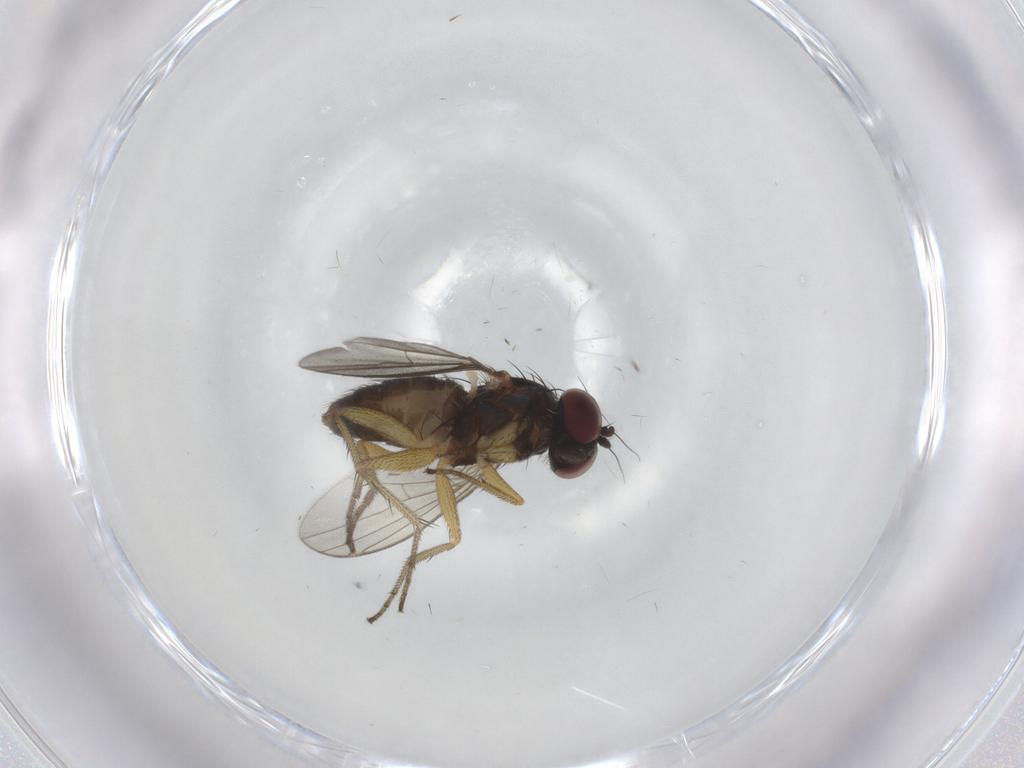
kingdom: Animalia
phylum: Arthropoda
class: Insecta
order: Diptera
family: Dolichopodidae
